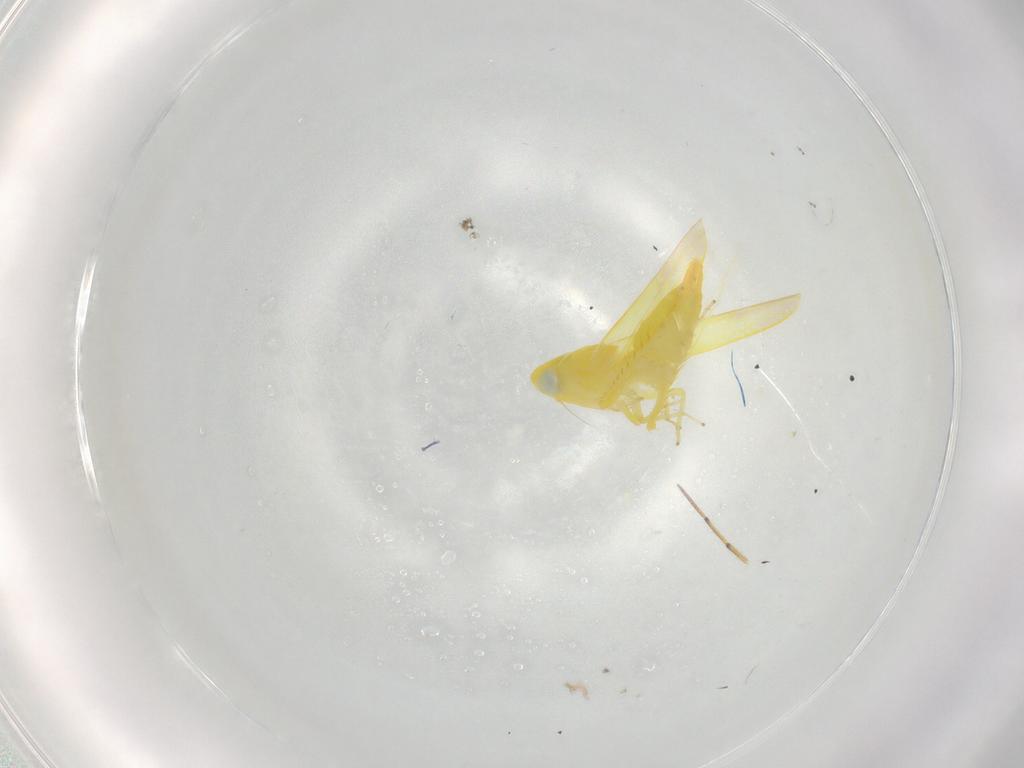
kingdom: Animalia
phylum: Arthropoda
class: Insecta
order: Hemiptera
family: Cicadellidae
